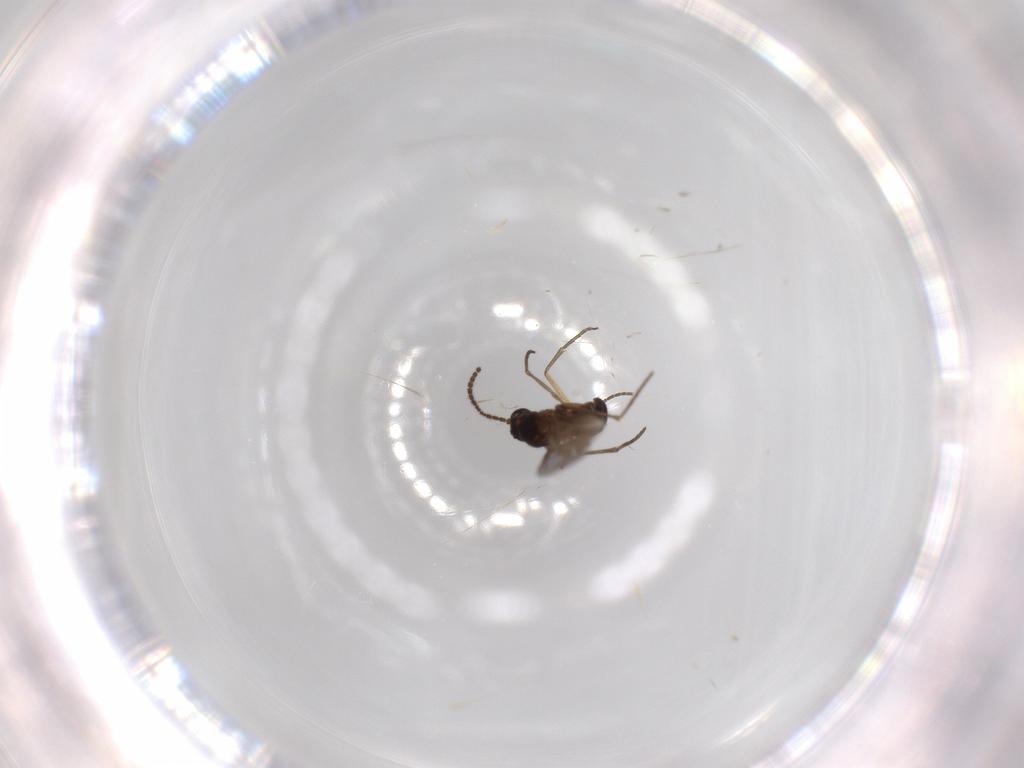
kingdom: Animalia
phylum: Arthropoda
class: Insecta
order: Diptera
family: Sciaridae
